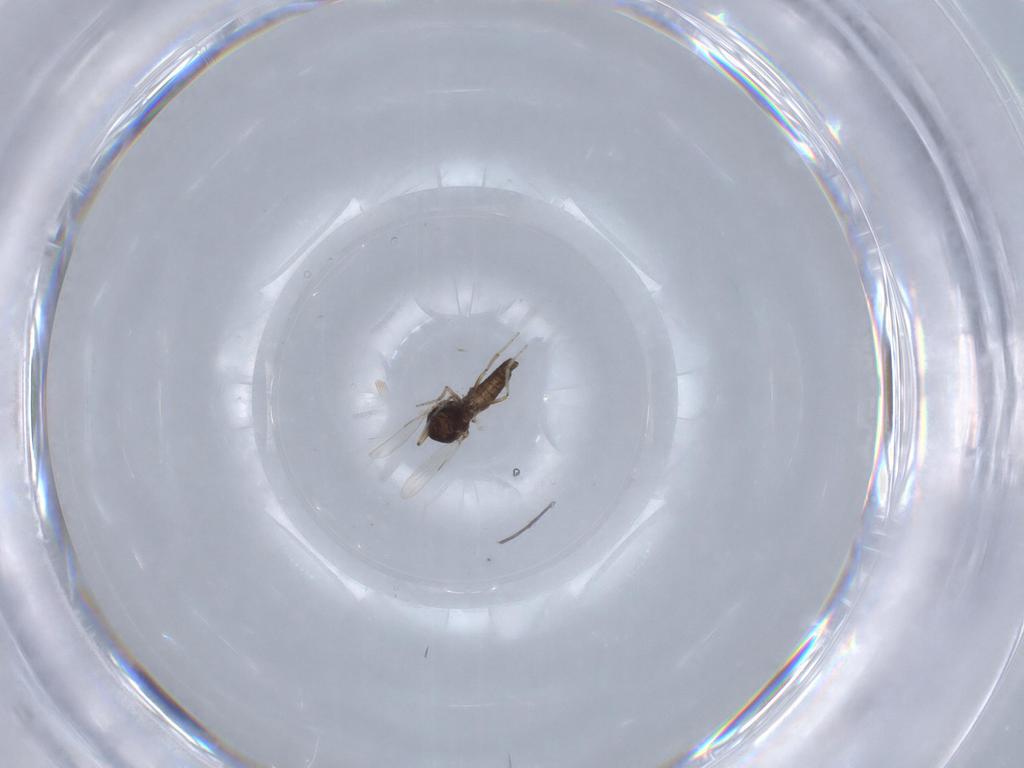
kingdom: Animalia
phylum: Arthropoda
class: Insecta
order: Diptera
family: Ceratopogonidae
